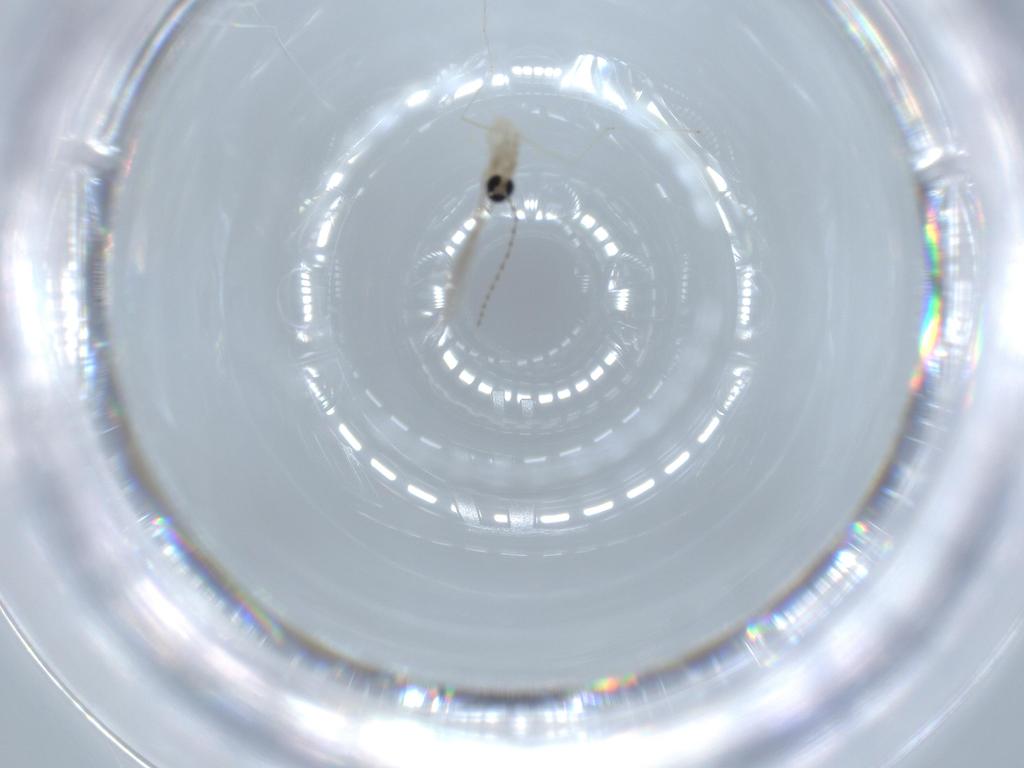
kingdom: Animalia
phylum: Arthropoda
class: Insecta
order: Diptera
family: Cecidomyiidae
